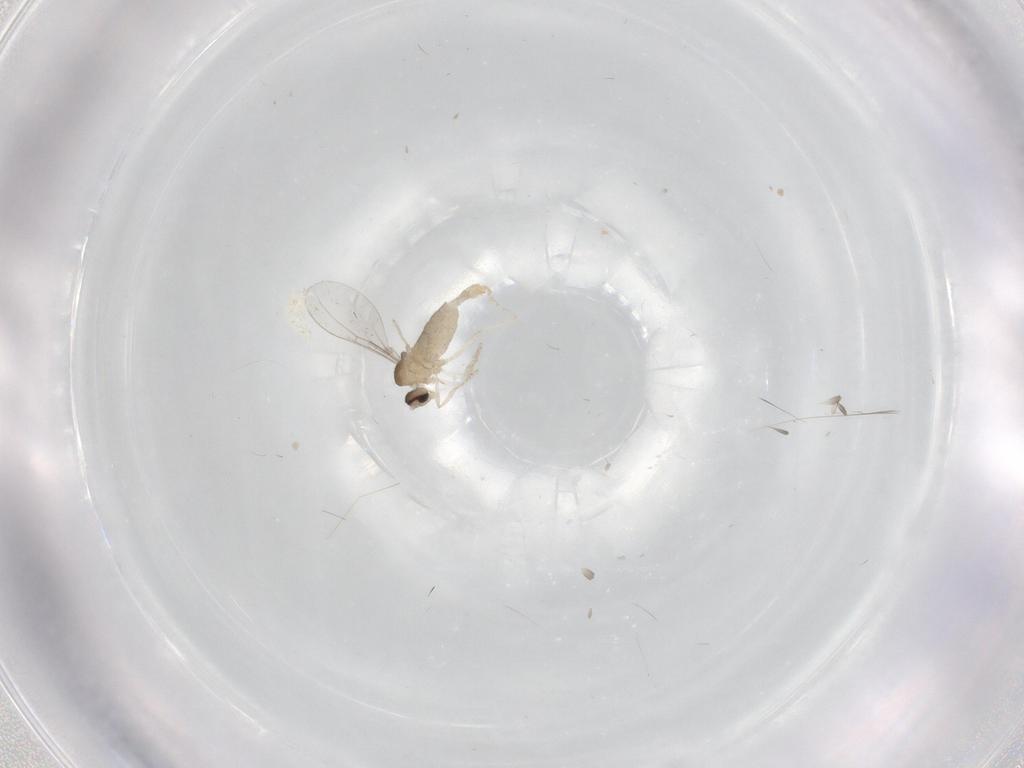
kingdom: Animalia
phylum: Arthropoda
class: Insecta
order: Diptera
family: Cecidomyiidae
